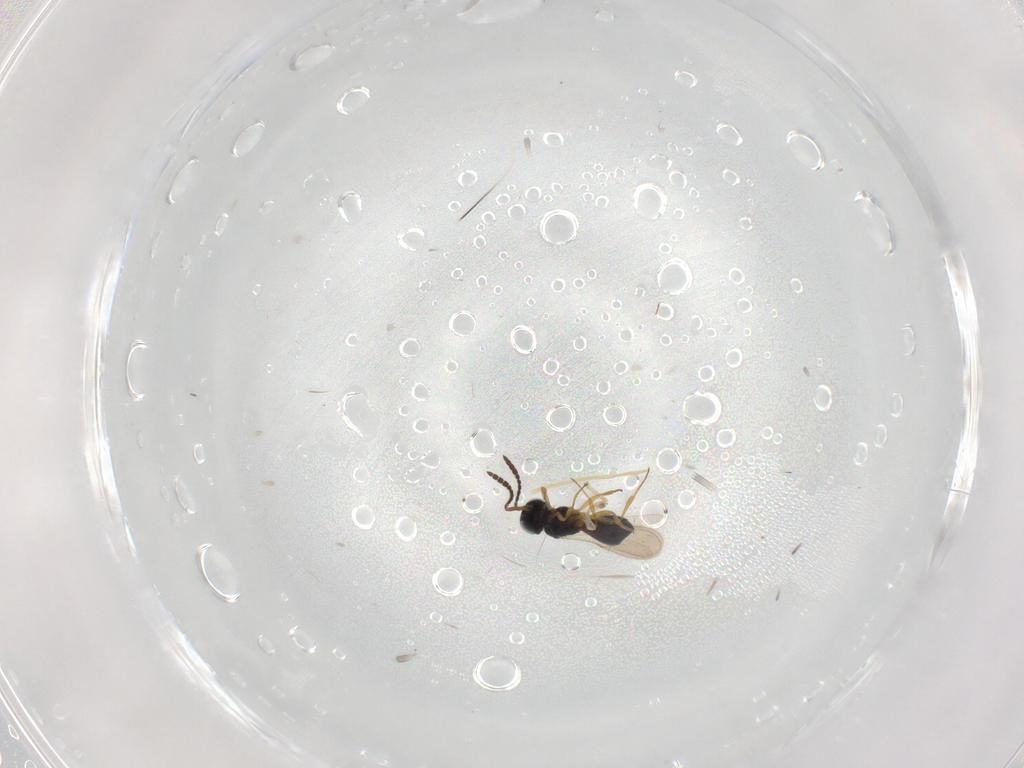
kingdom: Animalia
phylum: Arthropoda
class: Insecta
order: Hymenoptera
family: Scelionidae
